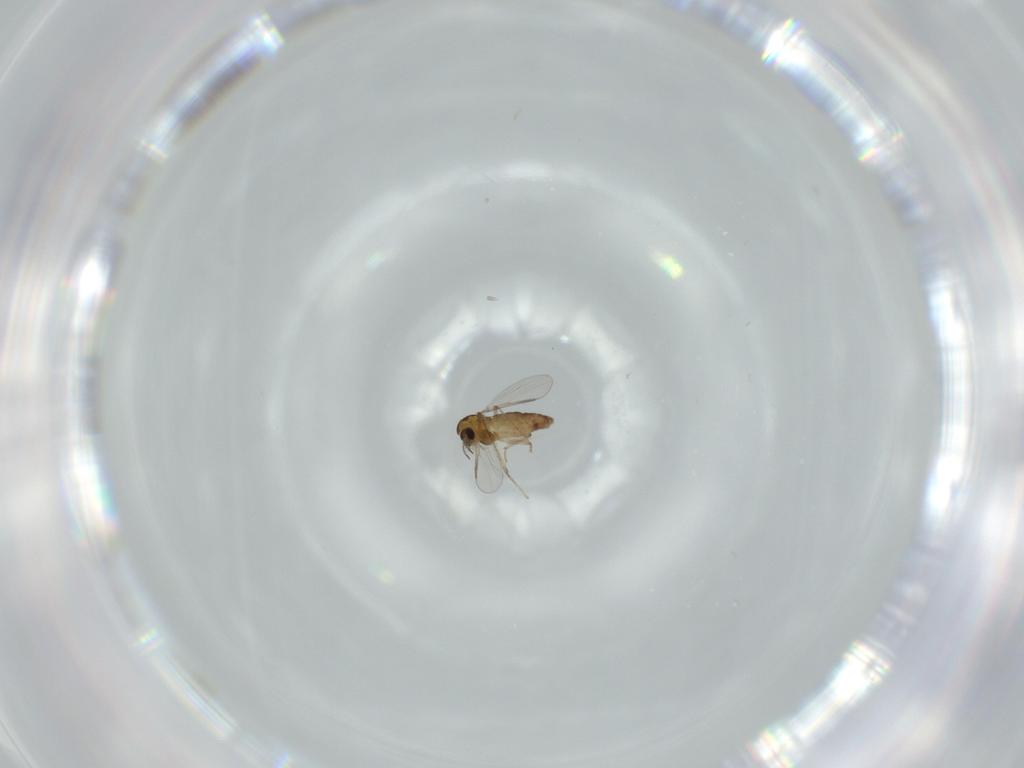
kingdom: Animalia
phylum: Arthropoda
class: Insecta
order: Diptera
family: Chironomidae
